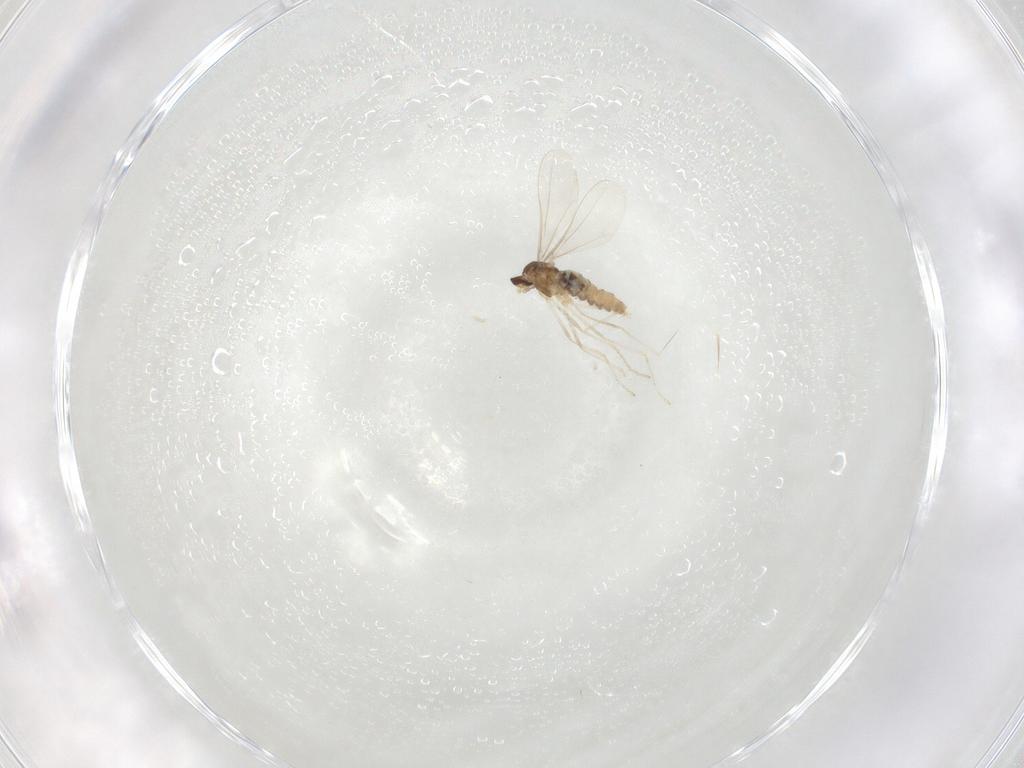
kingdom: Animalia
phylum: Arthropoda
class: Insecta
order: Diptera
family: Cecidomyiidae
